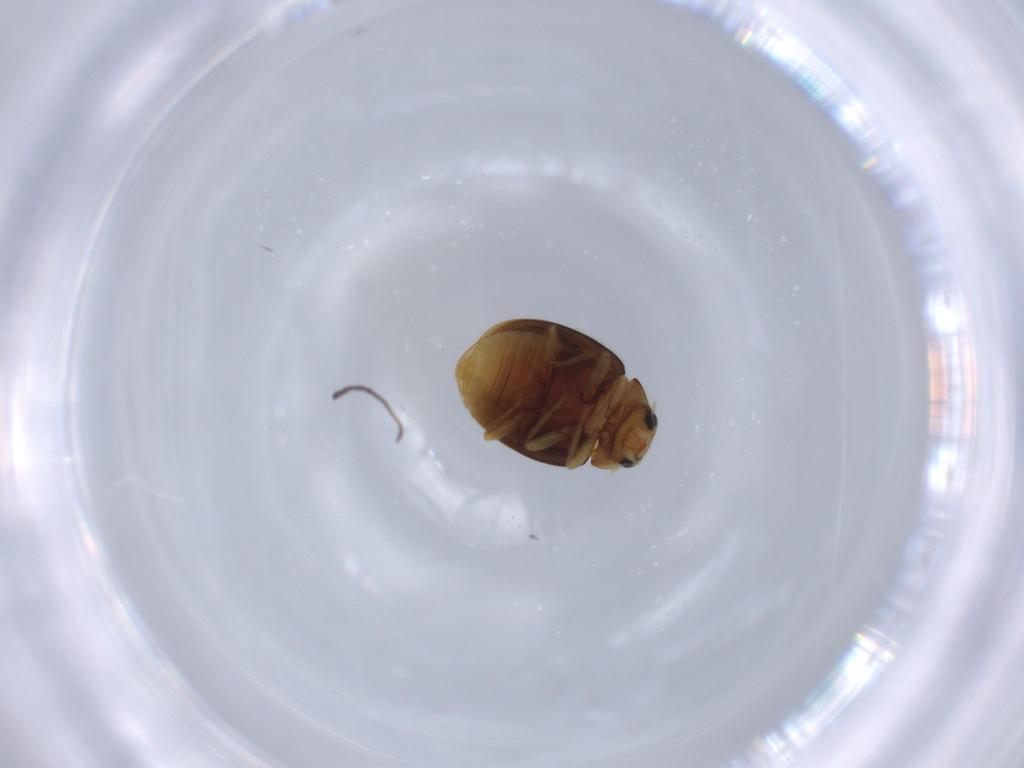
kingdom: Animalia
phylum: Arthropoda
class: Insecta
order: Coleoptera
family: Chrysomelidae
